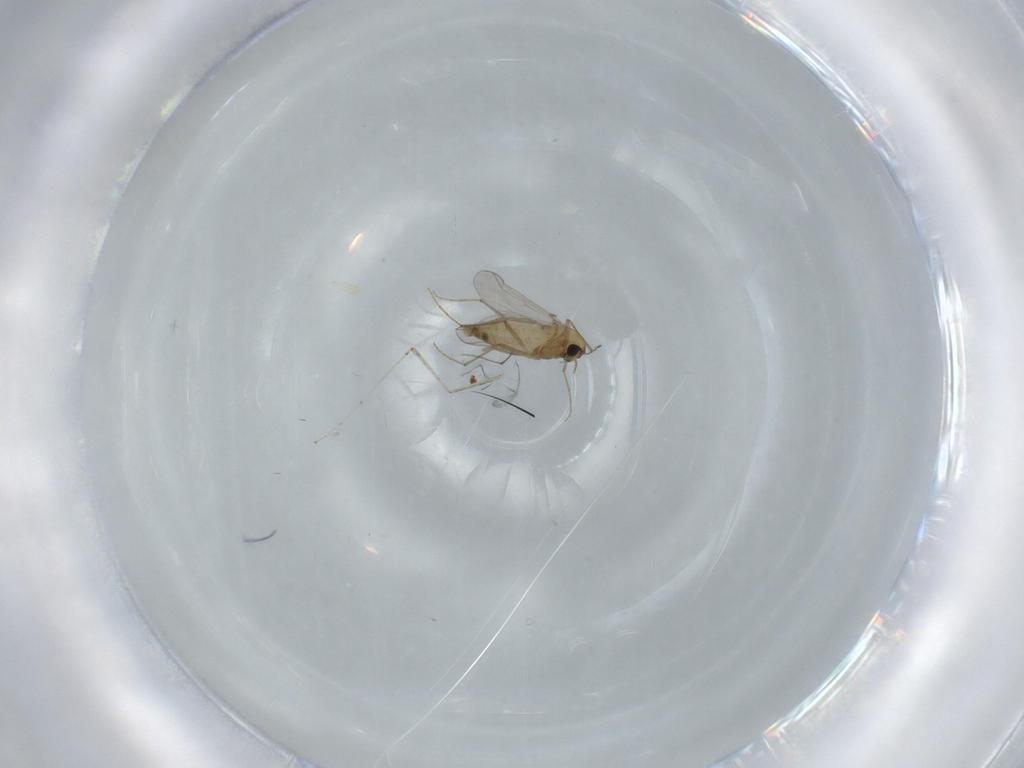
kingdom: Animalia
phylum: Arthropoda
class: Insecta
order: Diptera
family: Chironomidae
